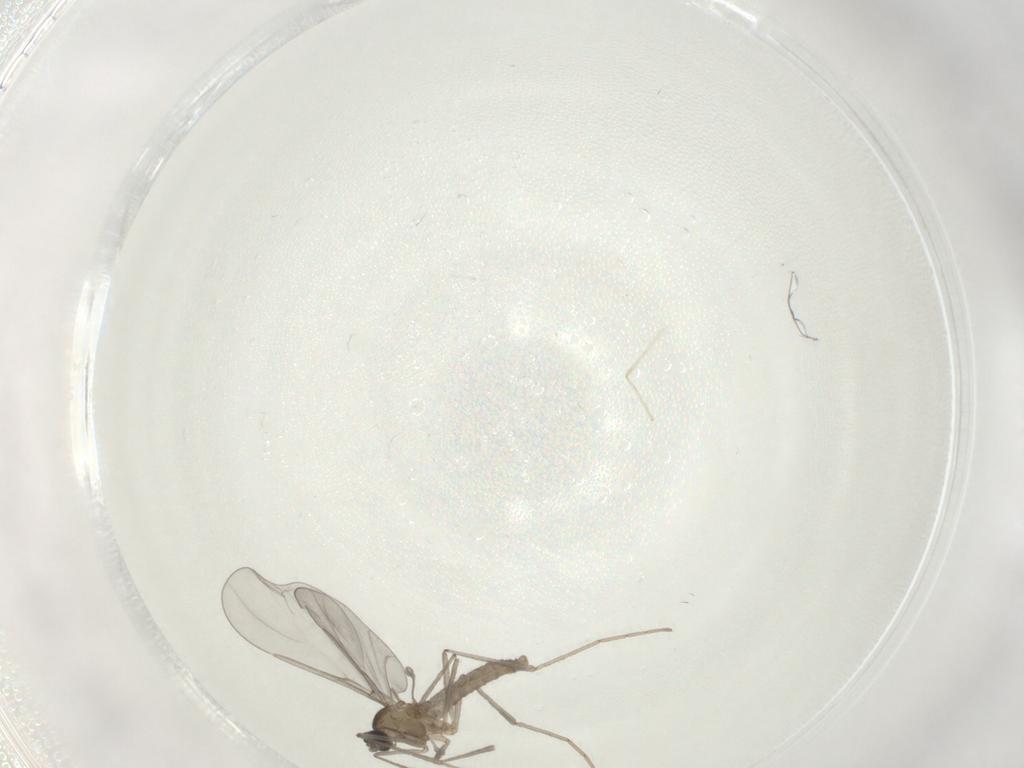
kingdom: Animalia
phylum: Arthropoda
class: Insecta
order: Diptera
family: Cecidomyiidae
